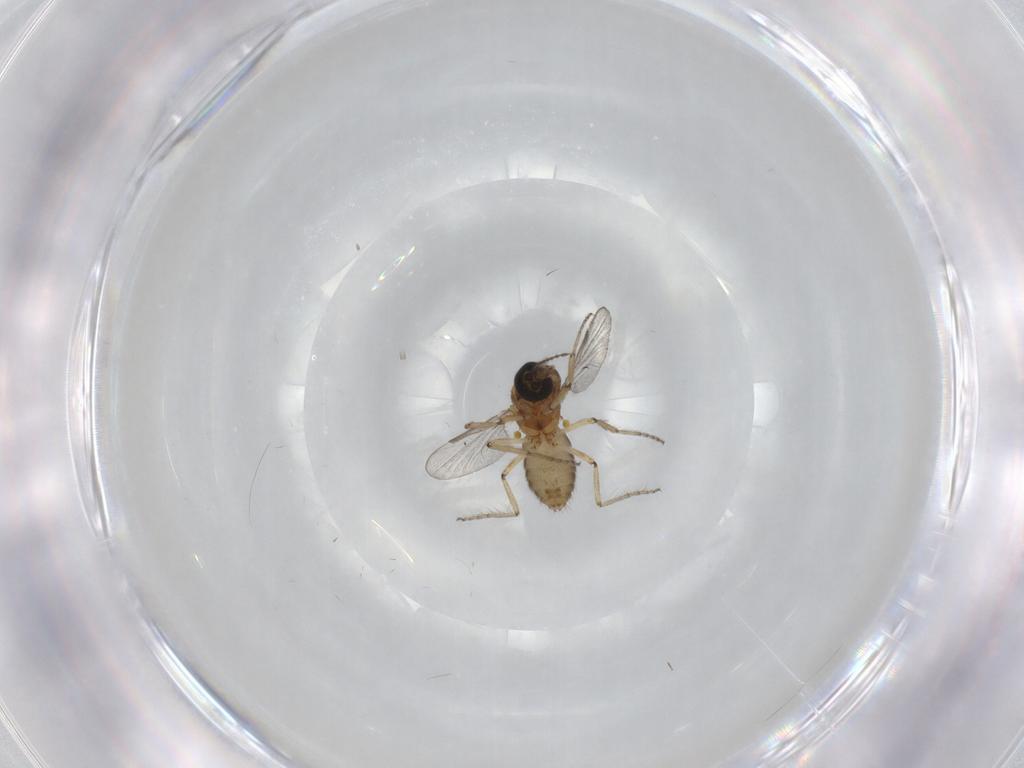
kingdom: Animalia
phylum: Arthropoda
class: Insecta
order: Diptera
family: Ceratopogonidae
